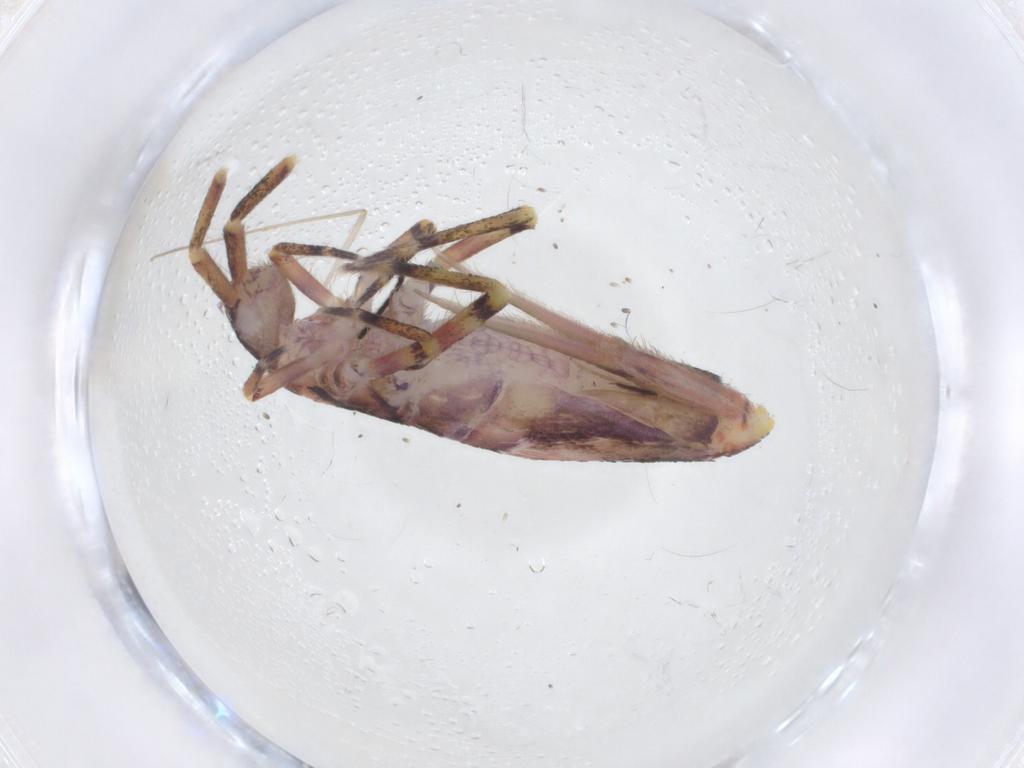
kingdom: Animalia
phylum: Arthropoda
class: Collembola
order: Entomobryomorpha
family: Entomobryidae
